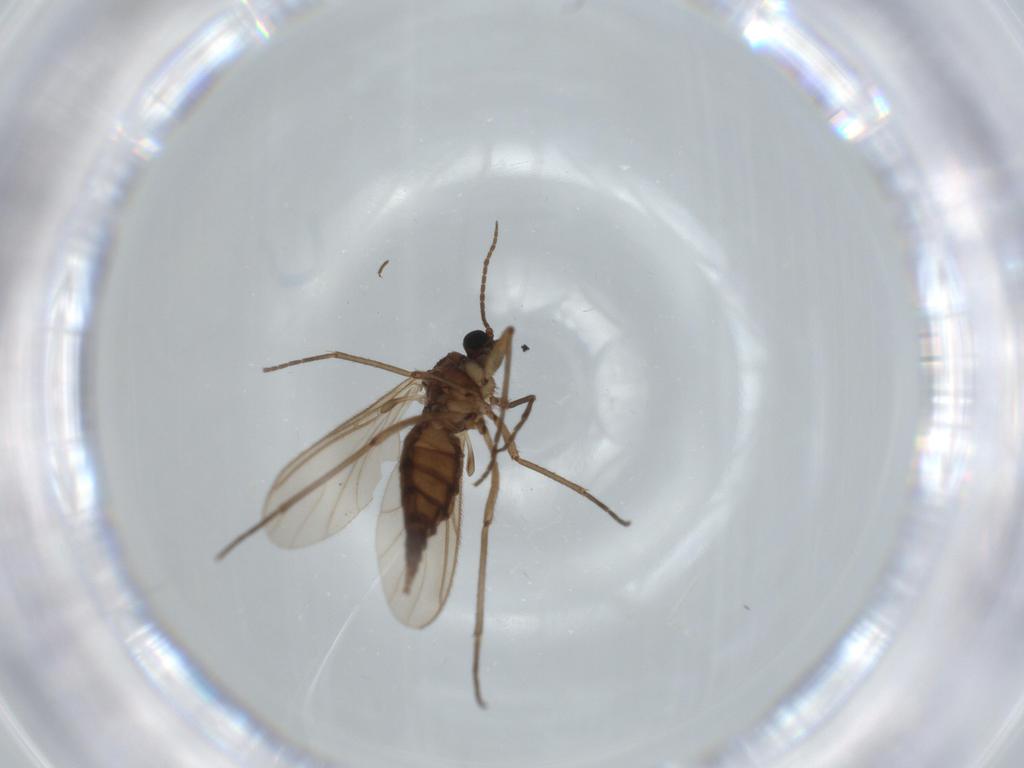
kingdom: Animalia
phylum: Arthropoda
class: Insecta
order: Diptera
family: Sciaridae
